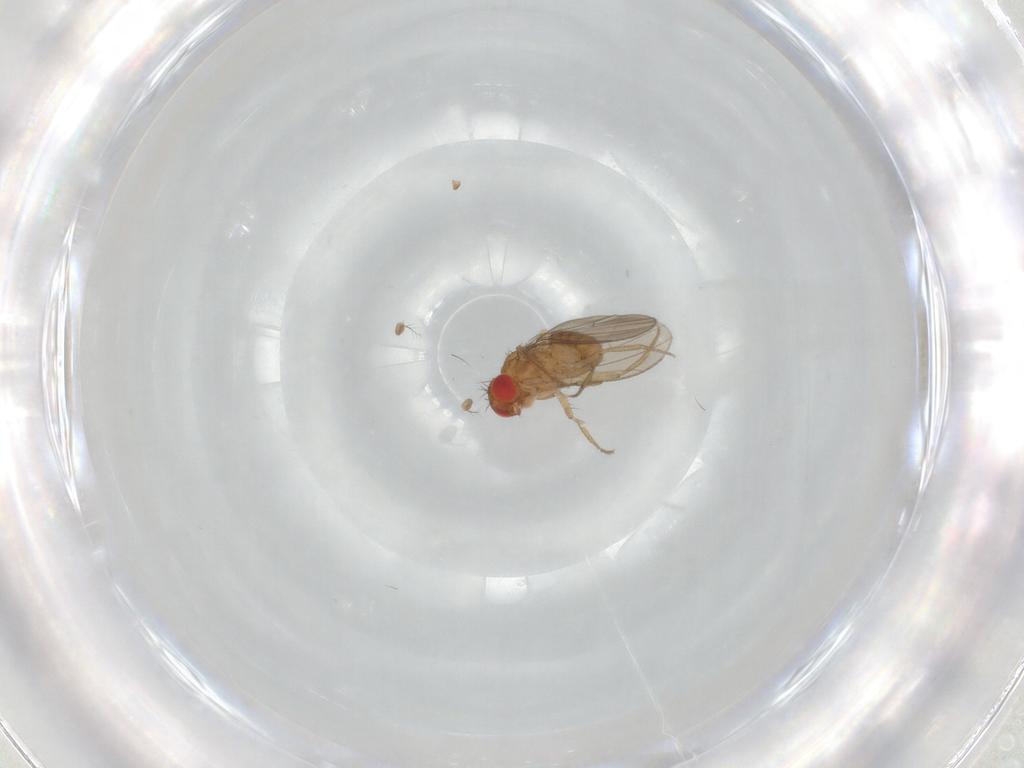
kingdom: Animalia
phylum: Arthropoda
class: Insecta
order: Diptera
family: Drosophilidae
